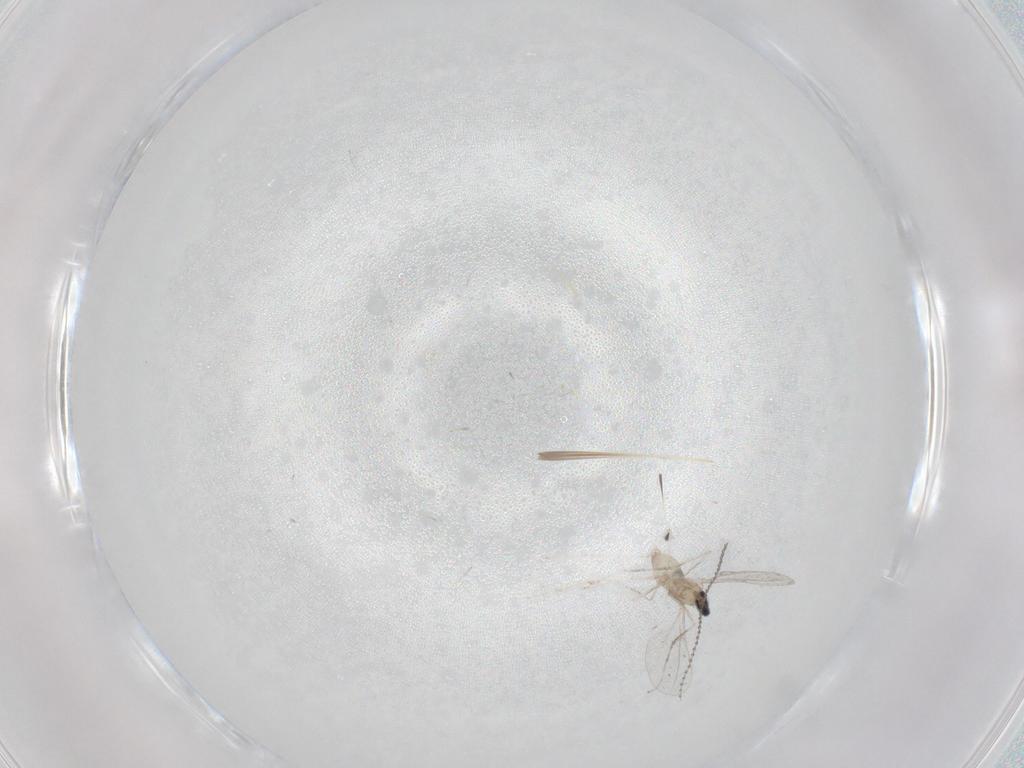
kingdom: Animalia
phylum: Arthropoda
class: Insecta
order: Diptera
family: Cecidomyiidae
